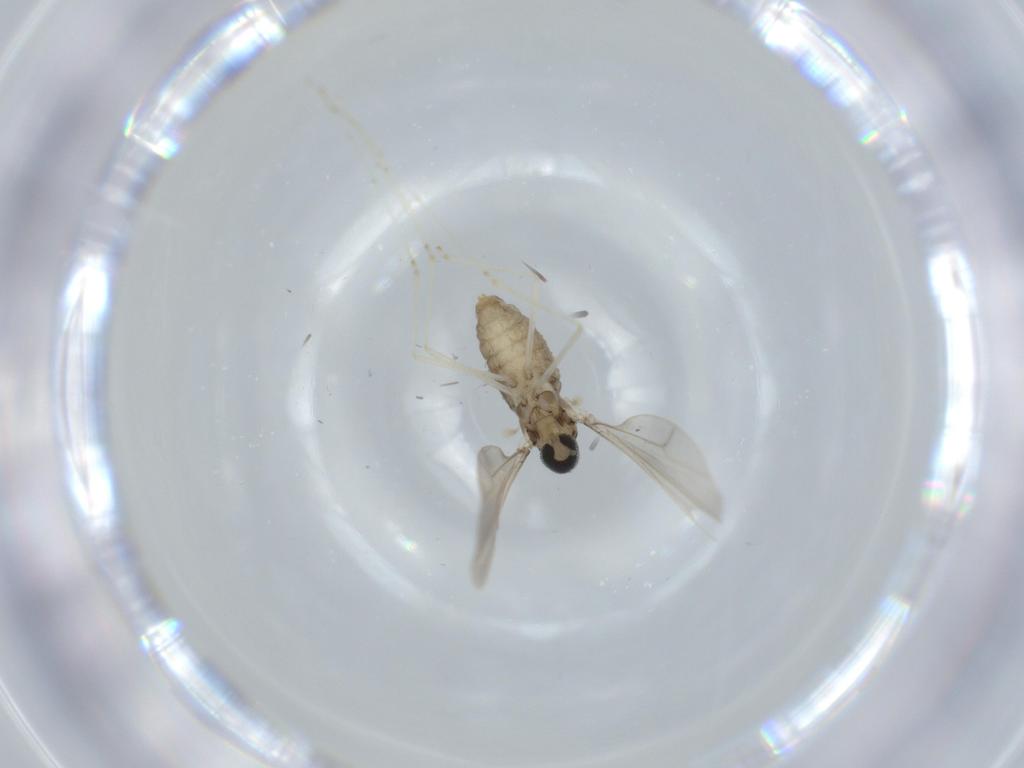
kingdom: Animalia
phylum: Arthropoda
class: Insecta
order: Diptera
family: Cecidomyiidae
